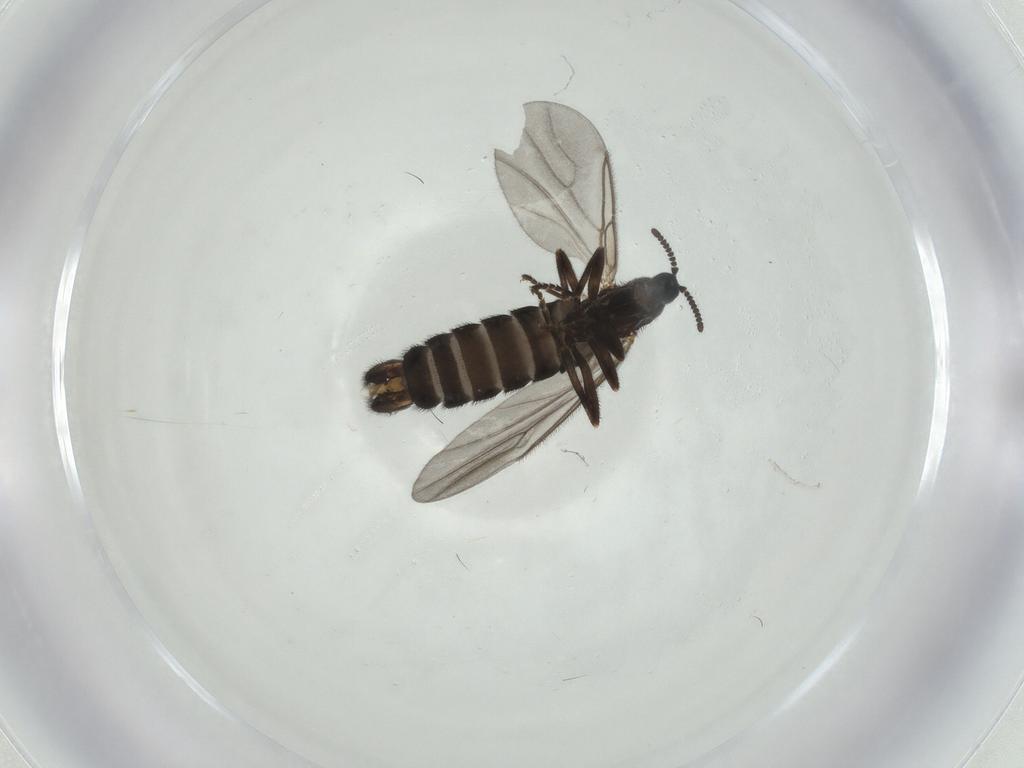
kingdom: Animalia
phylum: Arthropoda
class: Insecta
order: Diptera
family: Scatopsidae
